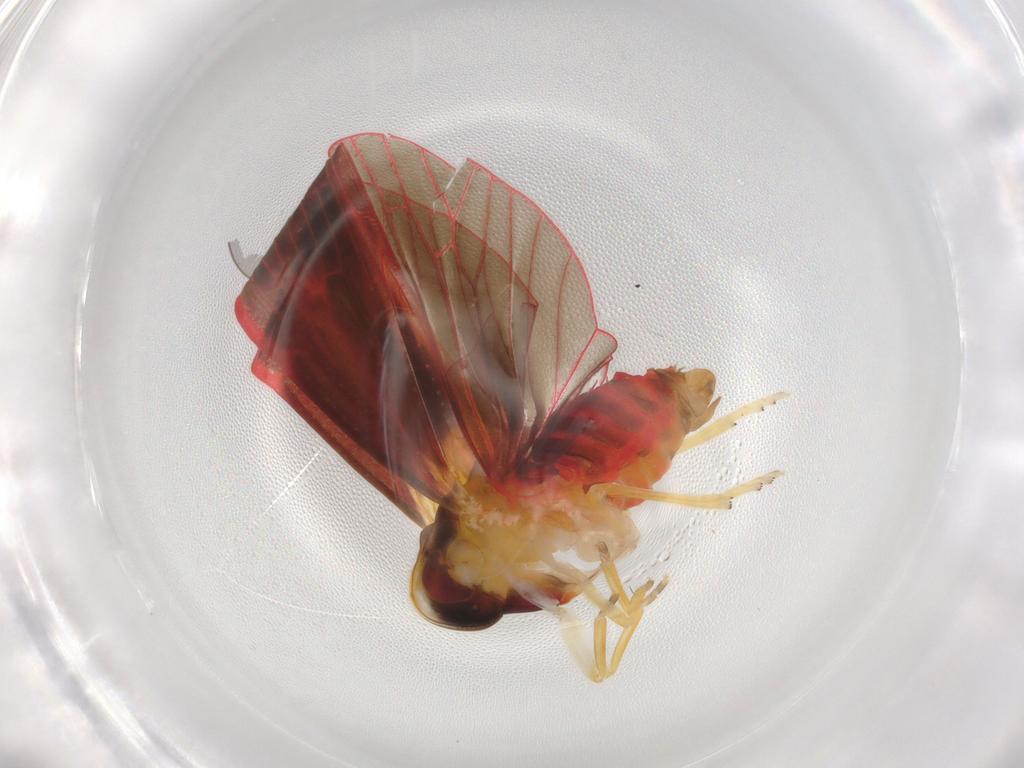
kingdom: Animalia
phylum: Arthropoda
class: Insecta
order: Hemiptera
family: Derbidae
